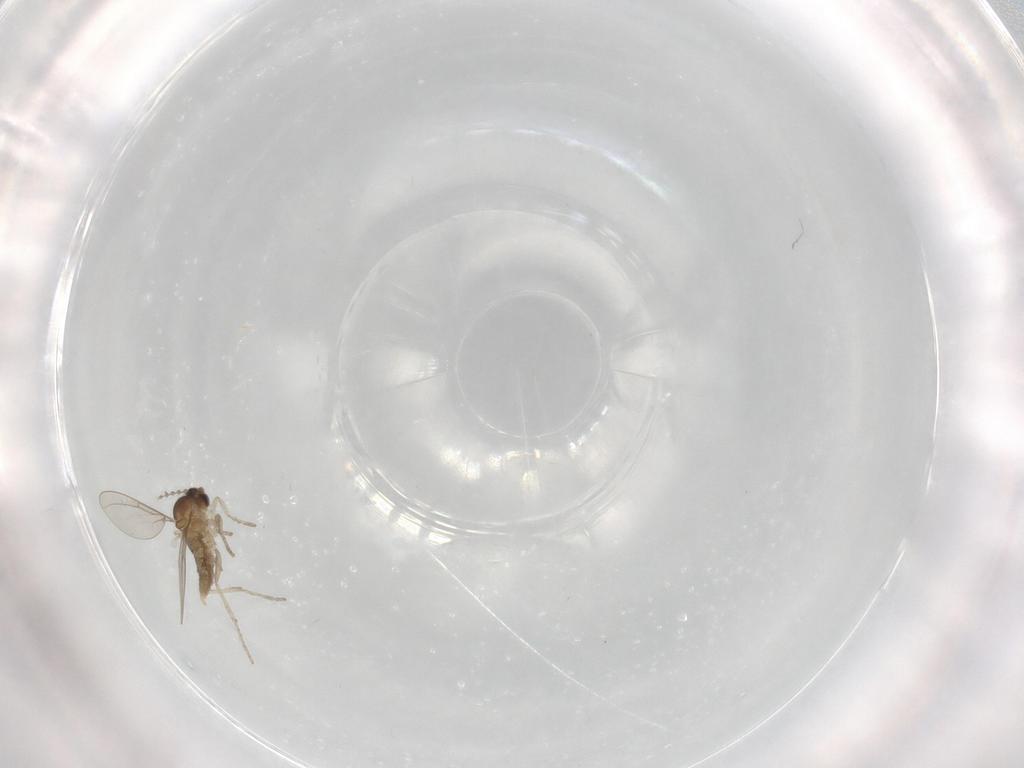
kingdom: Animalia
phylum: Arthropoda
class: Insecta
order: Diptera
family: Cecidomyiidae
